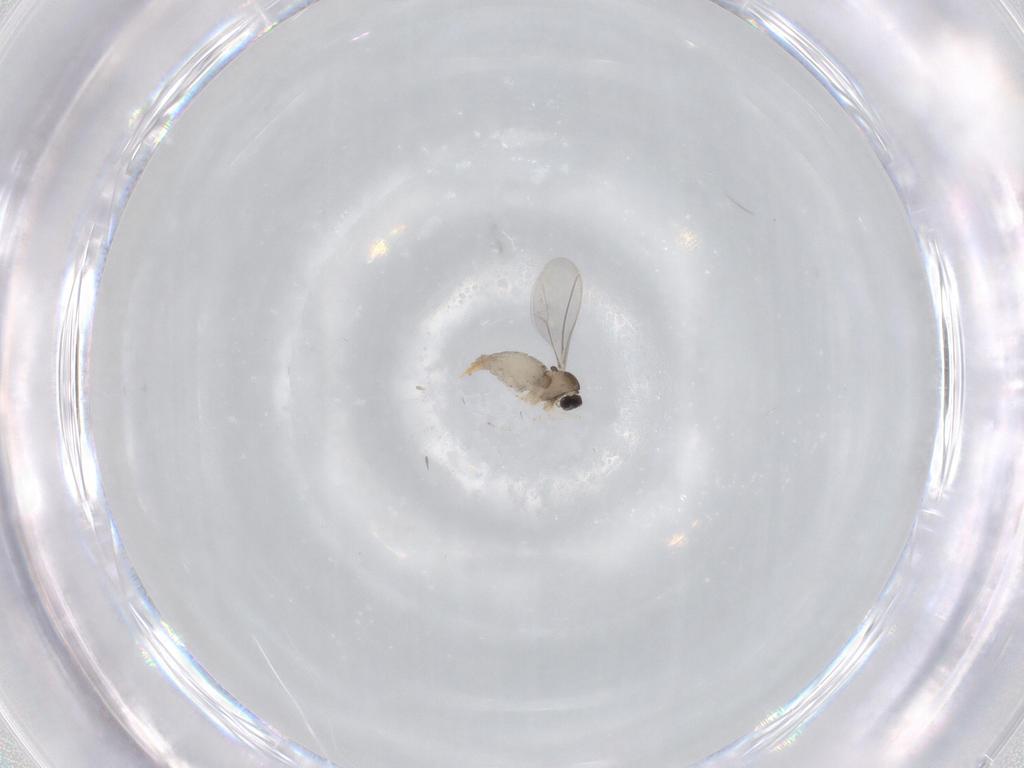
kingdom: Animalia
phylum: Arthropoda
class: Insecta
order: Diptera
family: Cecidomyiidae
